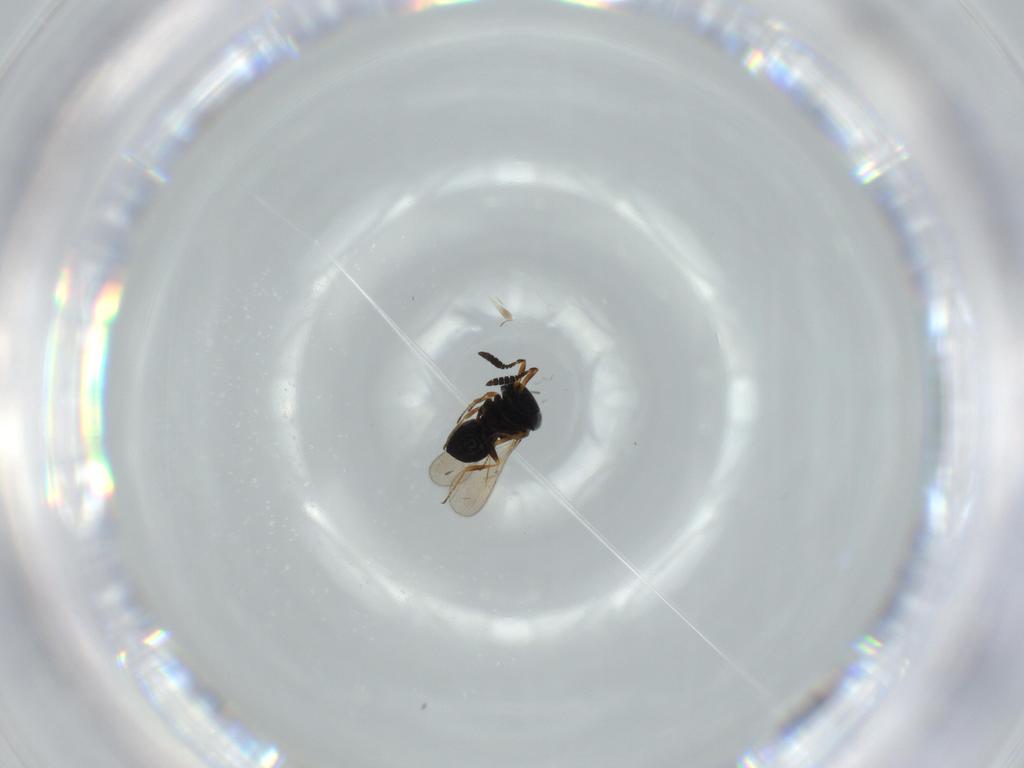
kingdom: Animalia
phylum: Arthropoda
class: Insecta
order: Hymenoptera
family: Scelionidae
